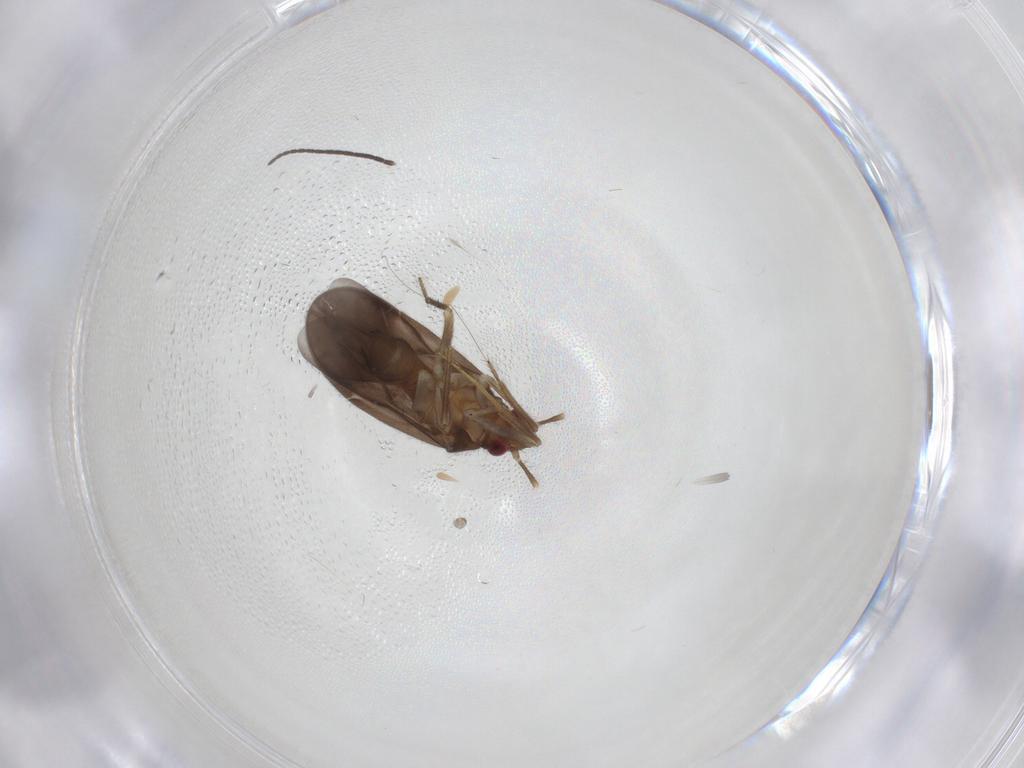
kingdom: Animalia
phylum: Arthropoda
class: Insecta
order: Hemiptera
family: Ceratocombidae
